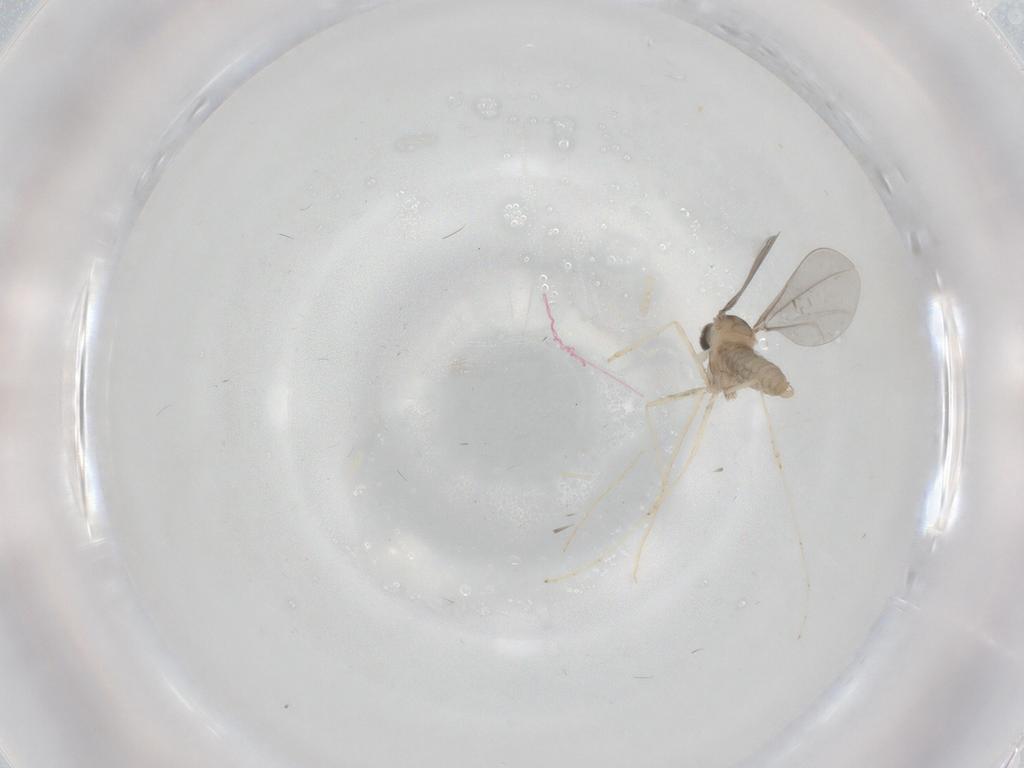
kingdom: Animalia
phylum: Arthropoda
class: Insecta
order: Diptera
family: Cecidomyiidae
